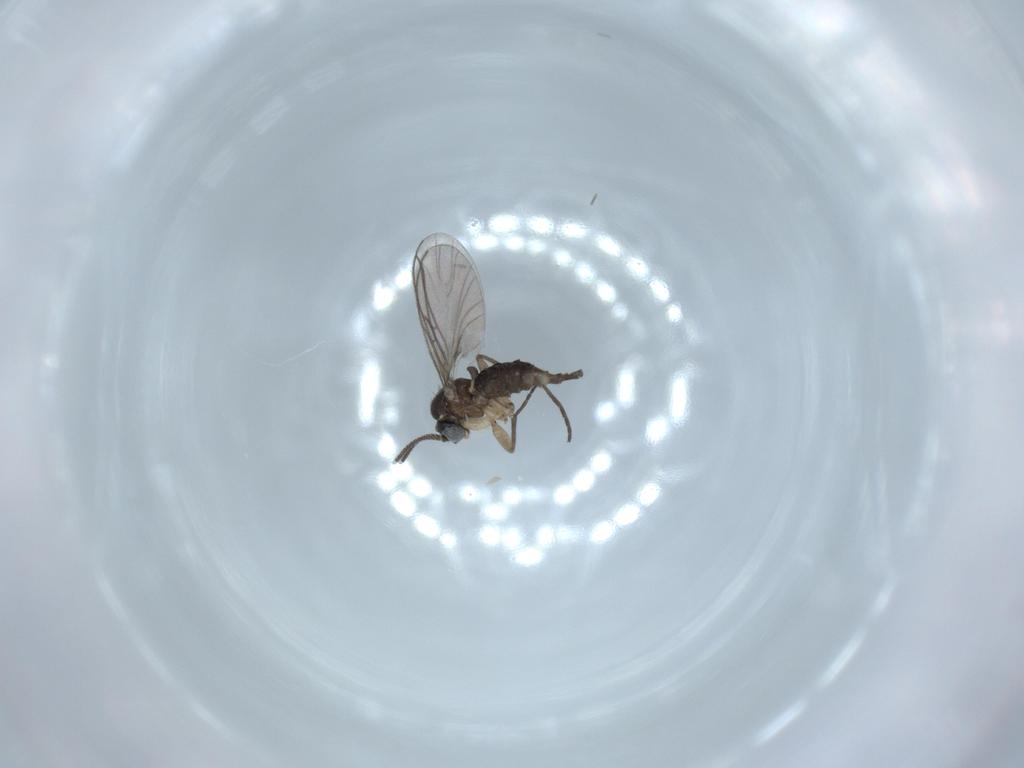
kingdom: Animalia
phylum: Arthropoda
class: Insecta
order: Diptera
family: Sciaridae
